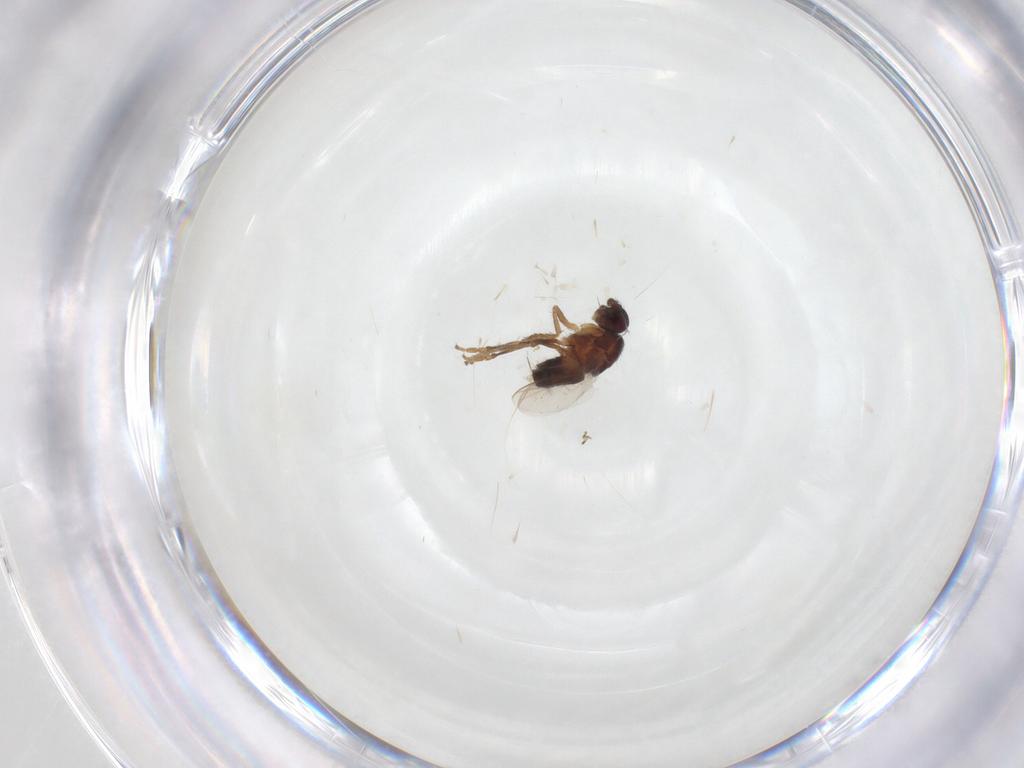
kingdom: Animalia
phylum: Arthropoda
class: Insecta
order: Diptera
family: Sphaeroceridae
